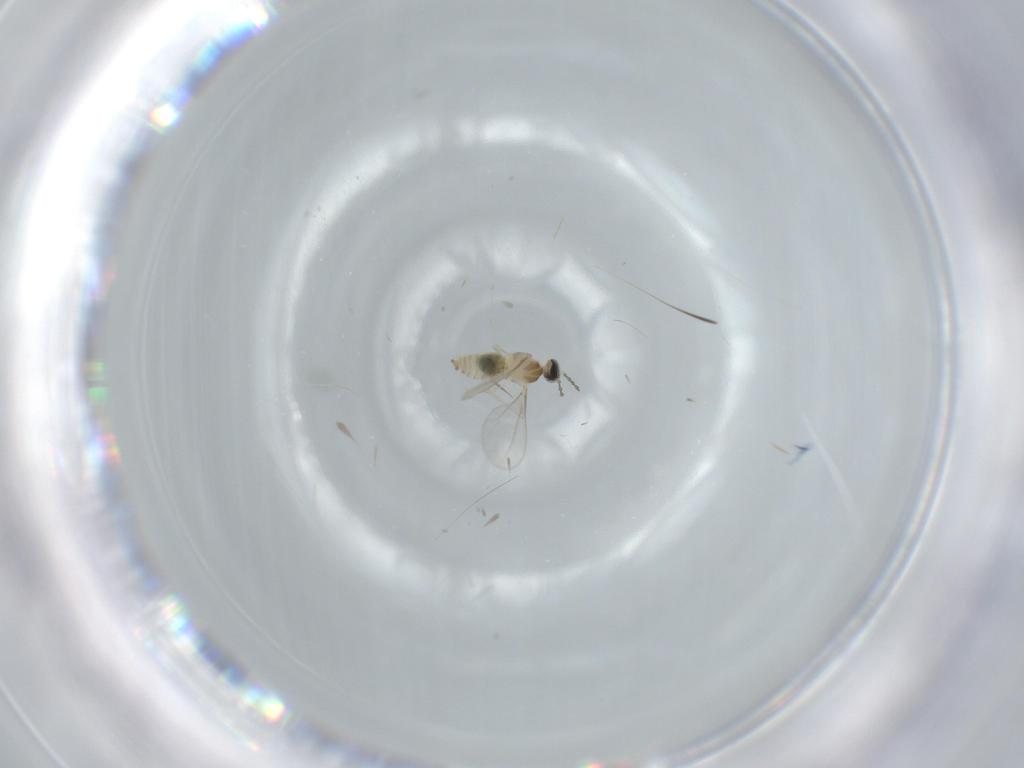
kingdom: Animalia
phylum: Arthropoda
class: Insecta
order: Diptera
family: Cecidomyiidae
